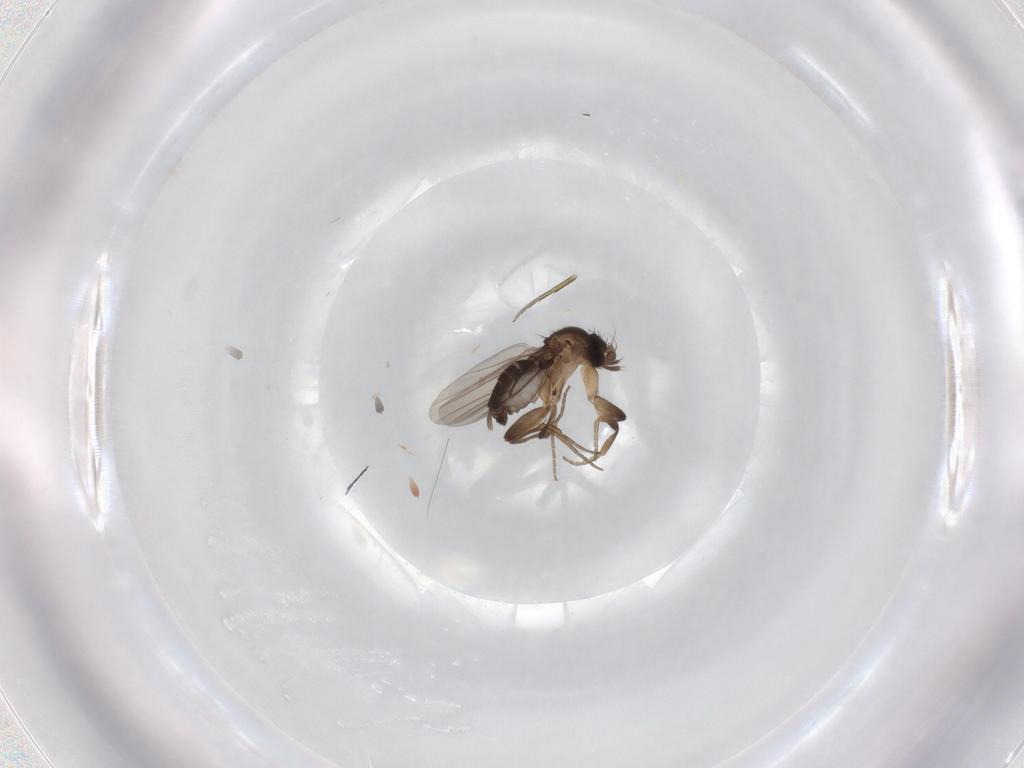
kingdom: Animalia
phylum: Arthropoda
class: Insecta
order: Diptera
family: Phoridae
